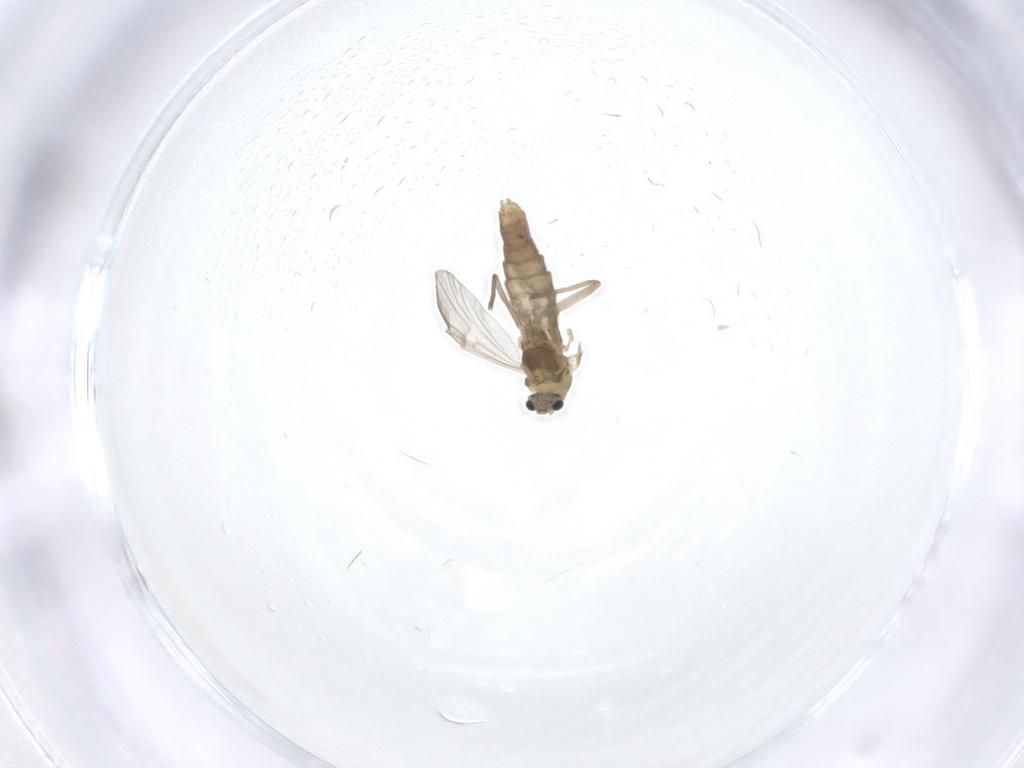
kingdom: Animalia
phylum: Arthropoda
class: Insecta
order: Diptera
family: Chironomidae
